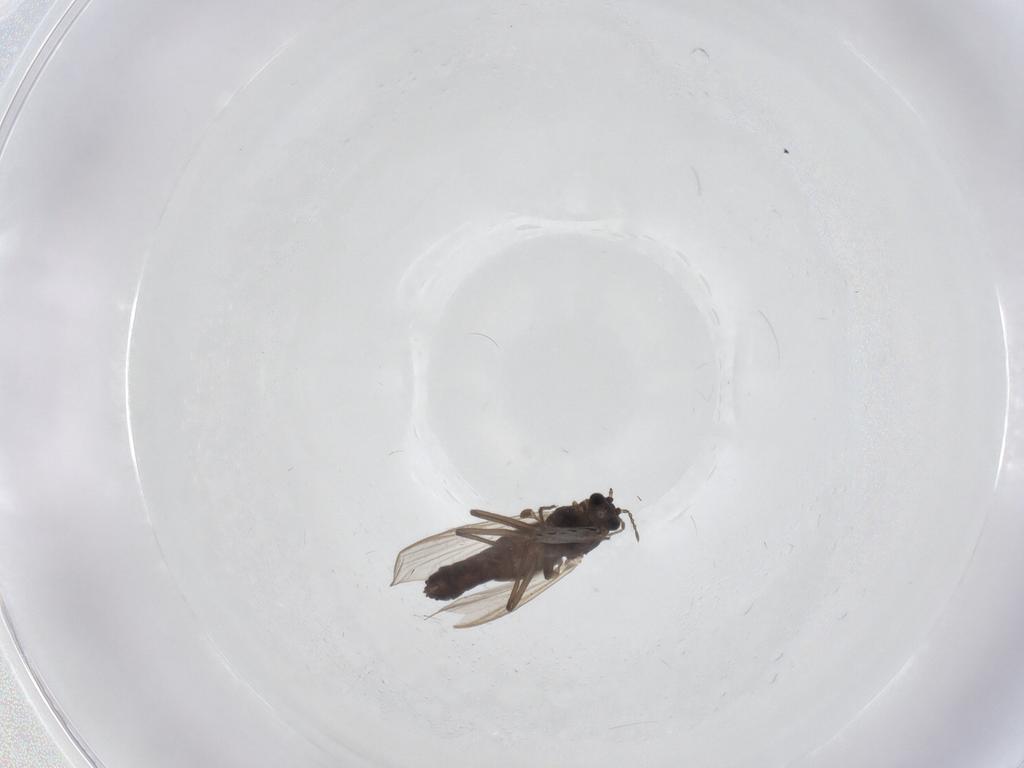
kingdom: Animalia
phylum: Arthropoda
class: Insecta
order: Diptera
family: Chironomidae
